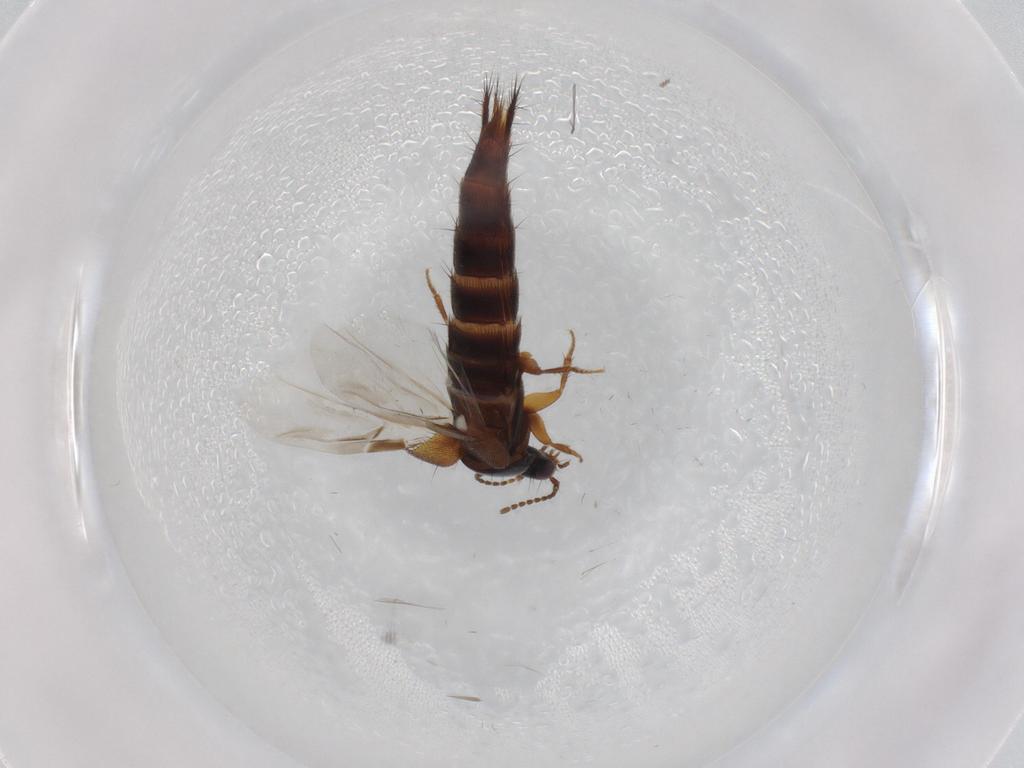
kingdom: Animalia
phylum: Arthropoda
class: Insecta
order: Coleoptera
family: Staphylinidae
